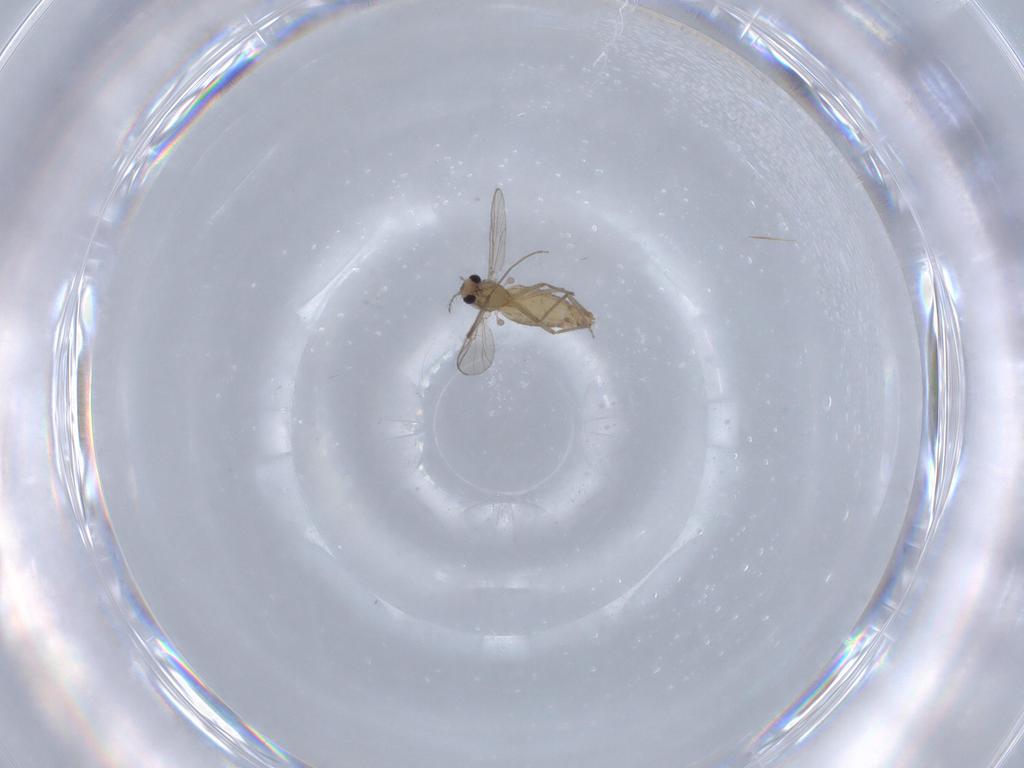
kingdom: Animalia
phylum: Arthropoda
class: Insecta
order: Diptera
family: Chironomidae
